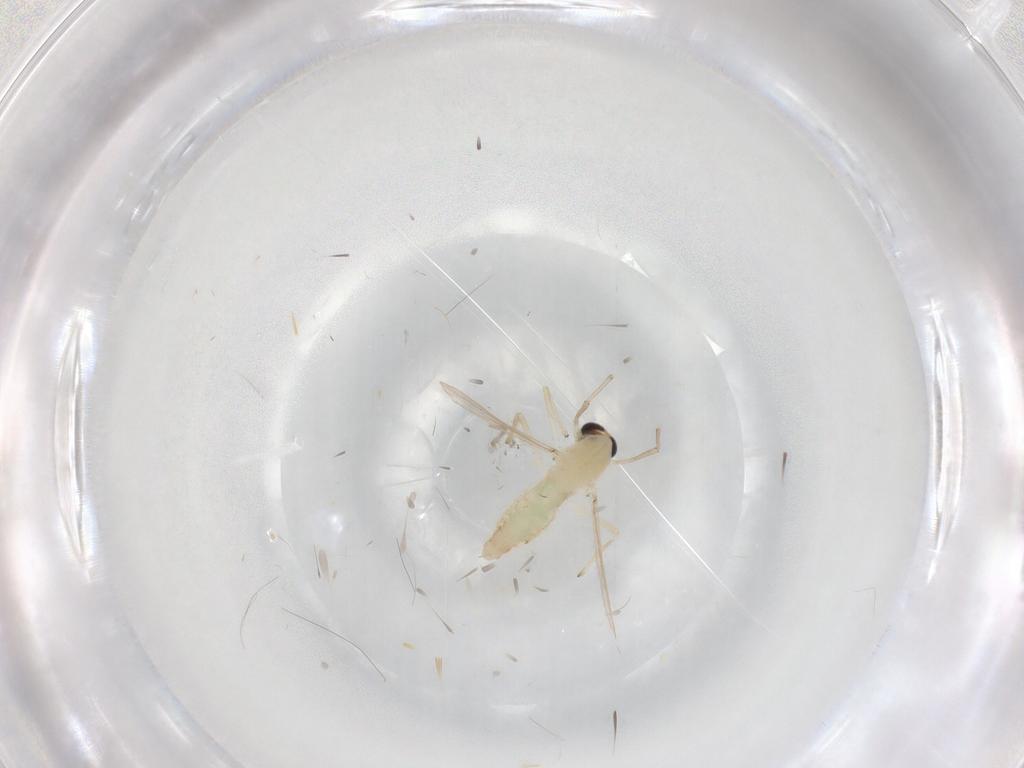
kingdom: Animalia
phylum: Arthropoda
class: Insecta
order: Diptera
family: Chironomidae
